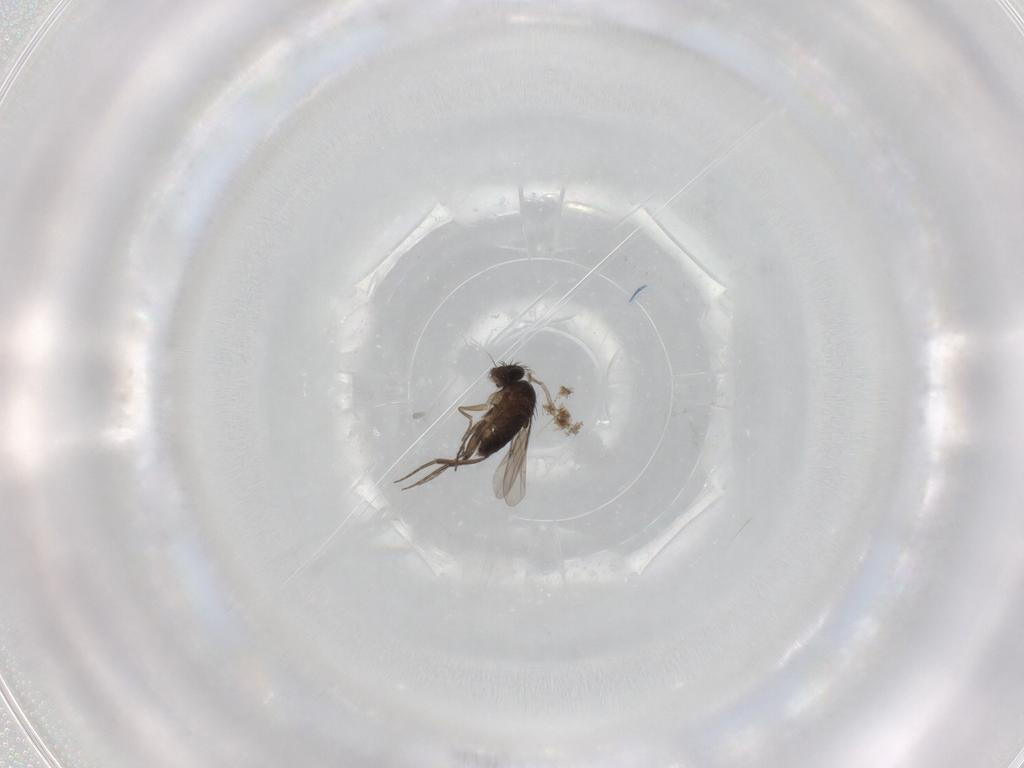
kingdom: Animalia
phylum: Arthropoda
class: Insecta
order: Diptera
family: Phoridae
